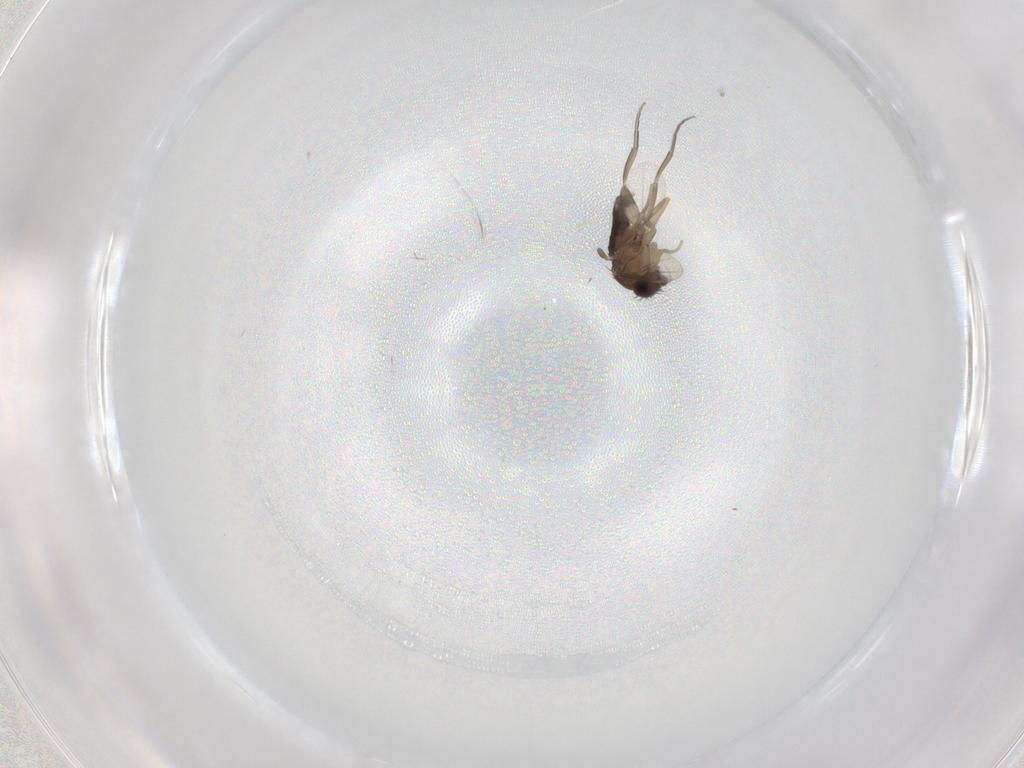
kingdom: Animalia
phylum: Arthropoda
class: Insecta
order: Diptera
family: Phoridae
